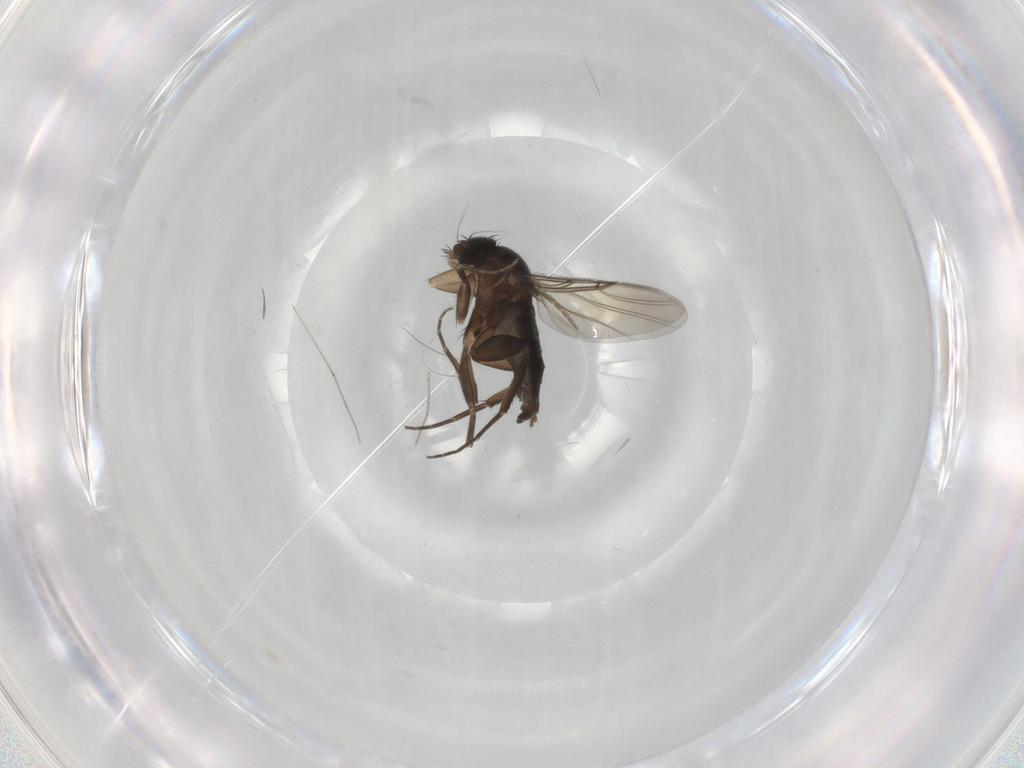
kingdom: Animalia
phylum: Arthropoda
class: Insecta
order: Diptera
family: Phoridae
